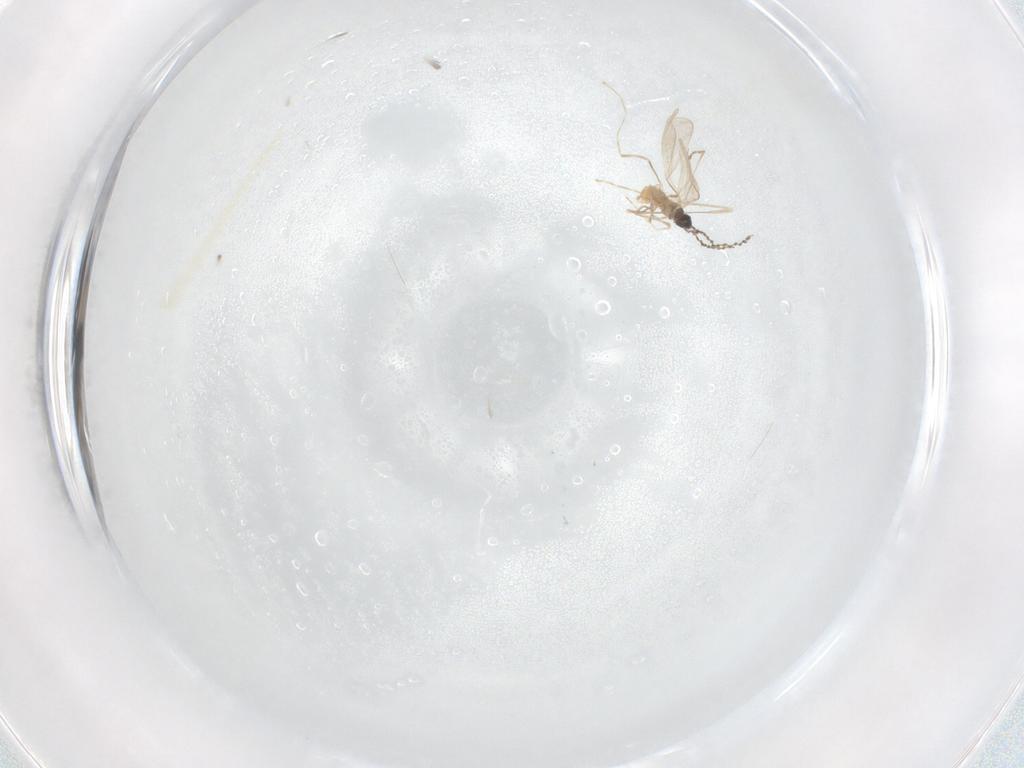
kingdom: Animalia
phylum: Arthropoda
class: Insecta
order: Diptera
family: Cecidomyiidae
